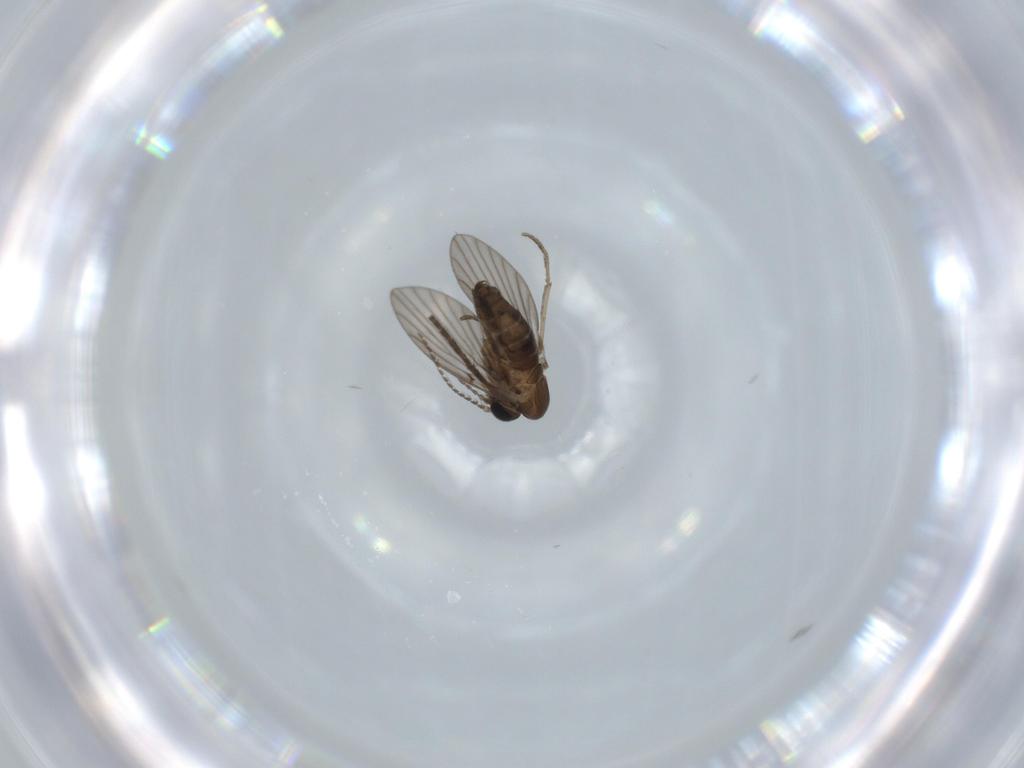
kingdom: Animalia
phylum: Arthropoda
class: Insecta
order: Diptera
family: Psychodidae
